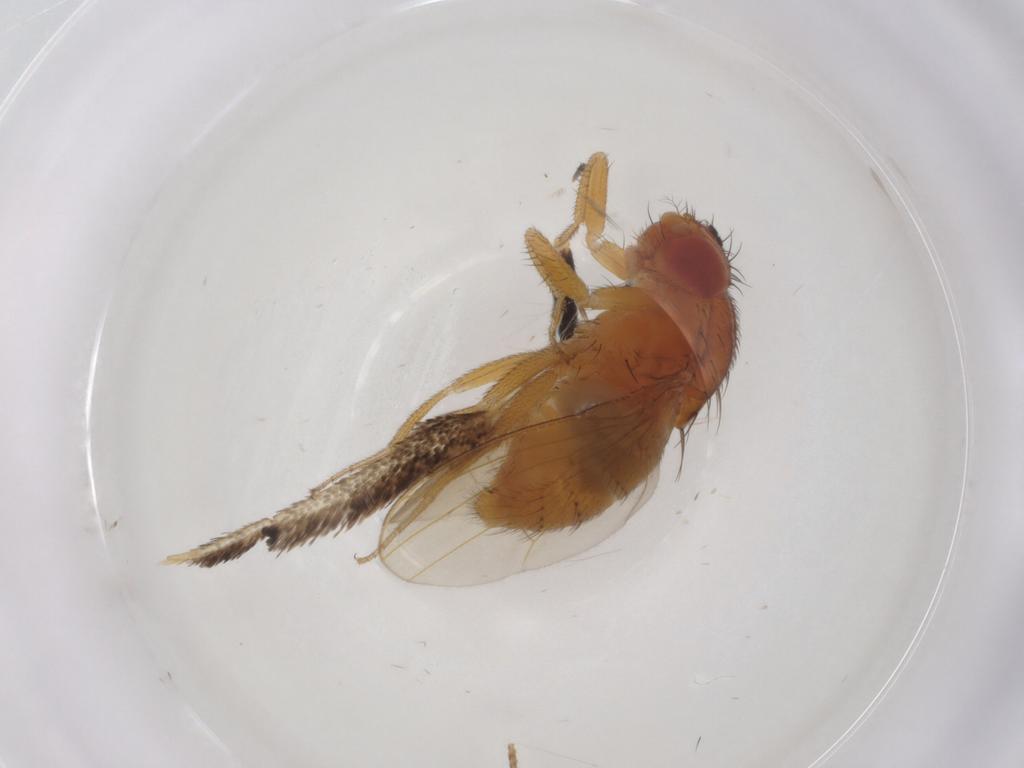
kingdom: Animalia
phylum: Arthropoda
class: Insecta
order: Diptera
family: Drosophilidae
